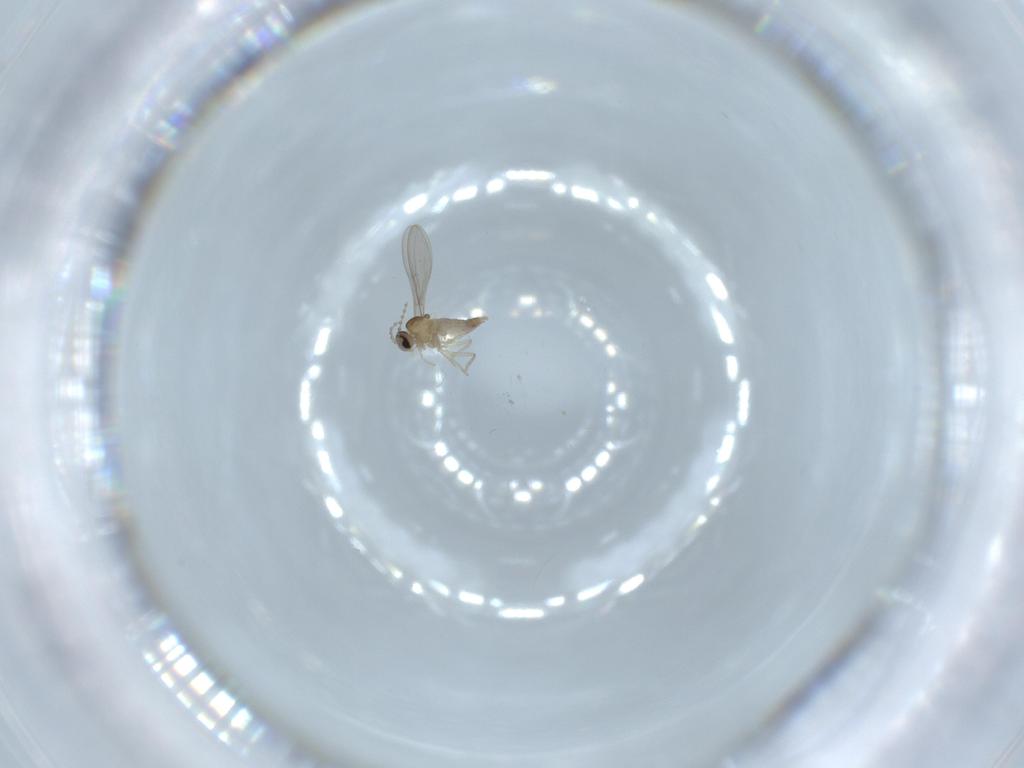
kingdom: Animalia
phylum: Arthropoda
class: Insecta
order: Diptera
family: Cecidomyiidae
